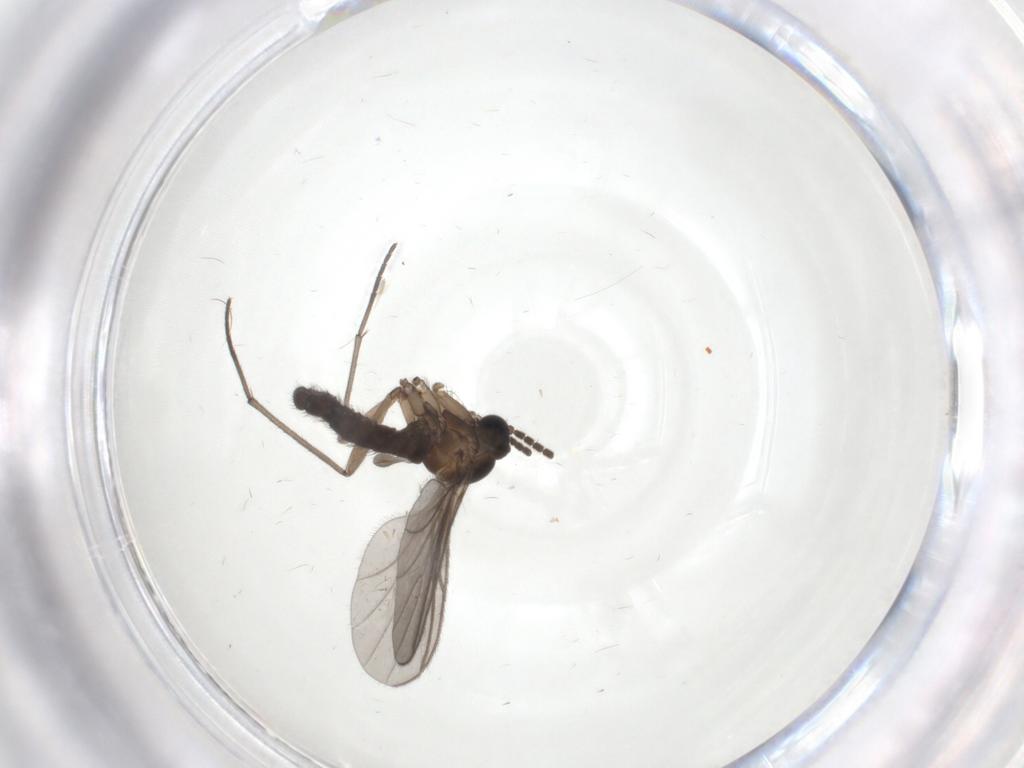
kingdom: Animalia
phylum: Arthropoda
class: Insecta
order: Diptera
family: Sciaridae
